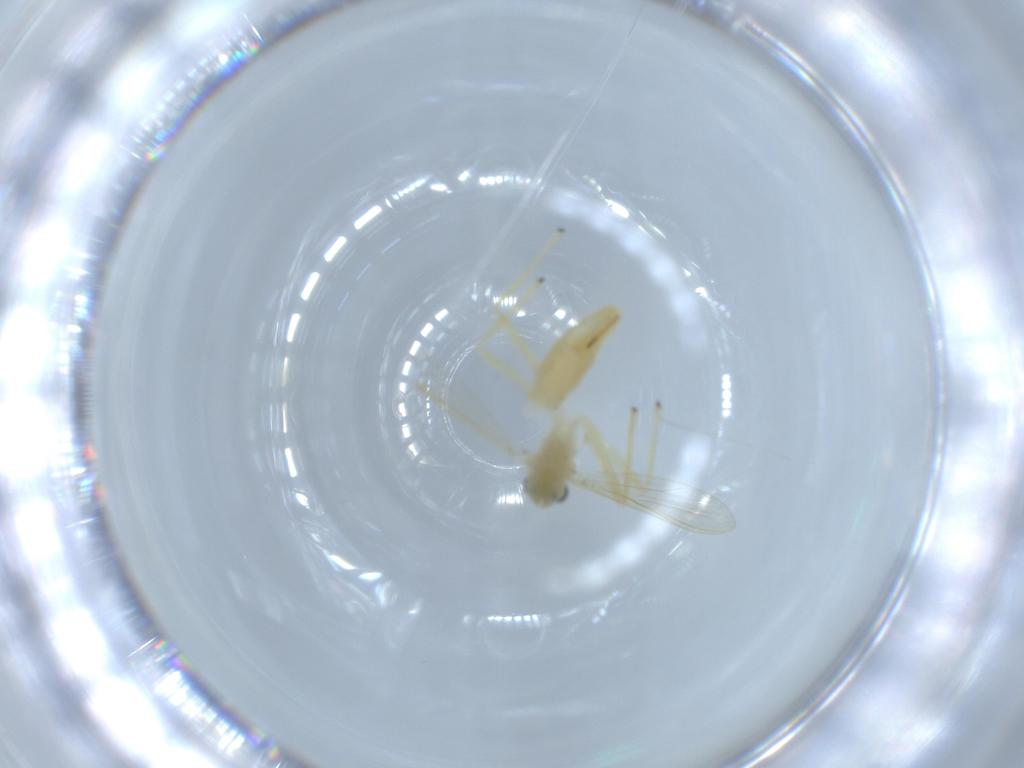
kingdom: Animalia
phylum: Arthropoda
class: Insecta
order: Diptera
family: Chironomidae
